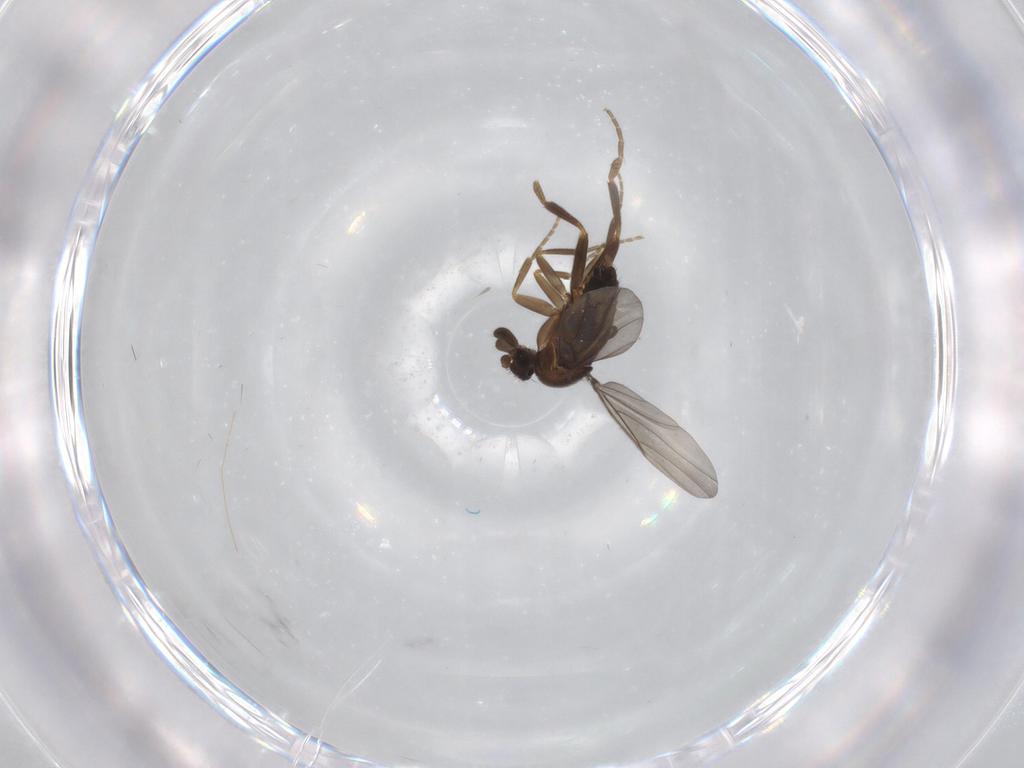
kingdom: Animalia
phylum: Arthropoda
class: Insecta
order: Diptera
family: Phoridae
